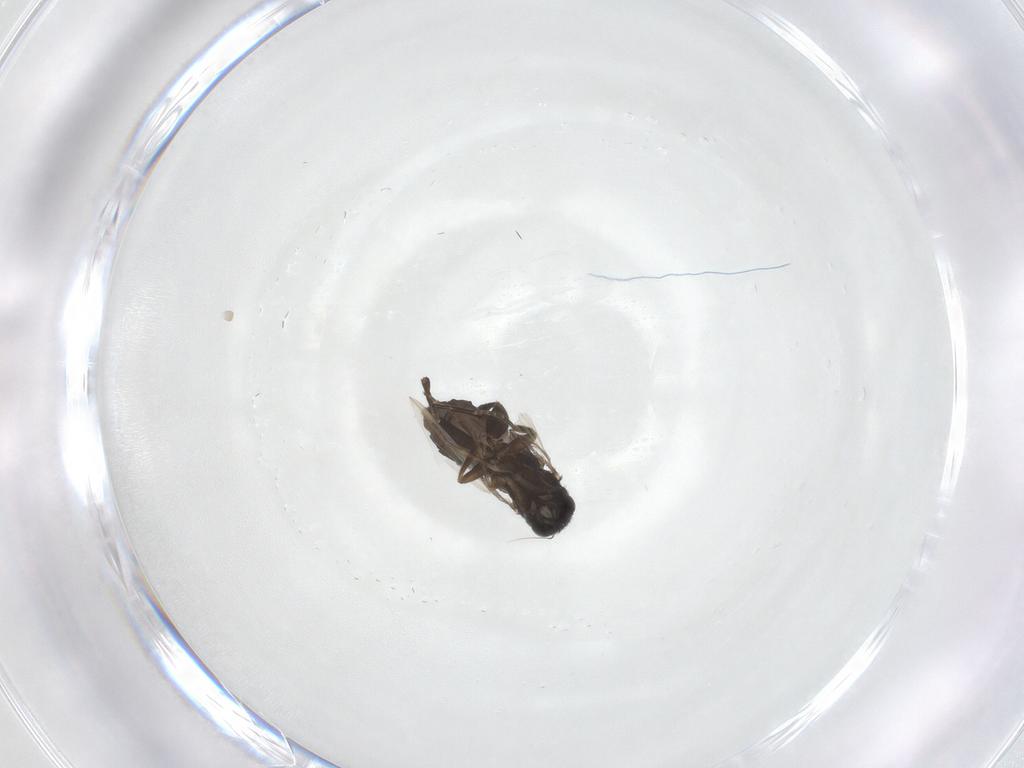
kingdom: Animalia
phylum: Arthropoda
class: Insecta
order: Diptera
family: Phoridae
